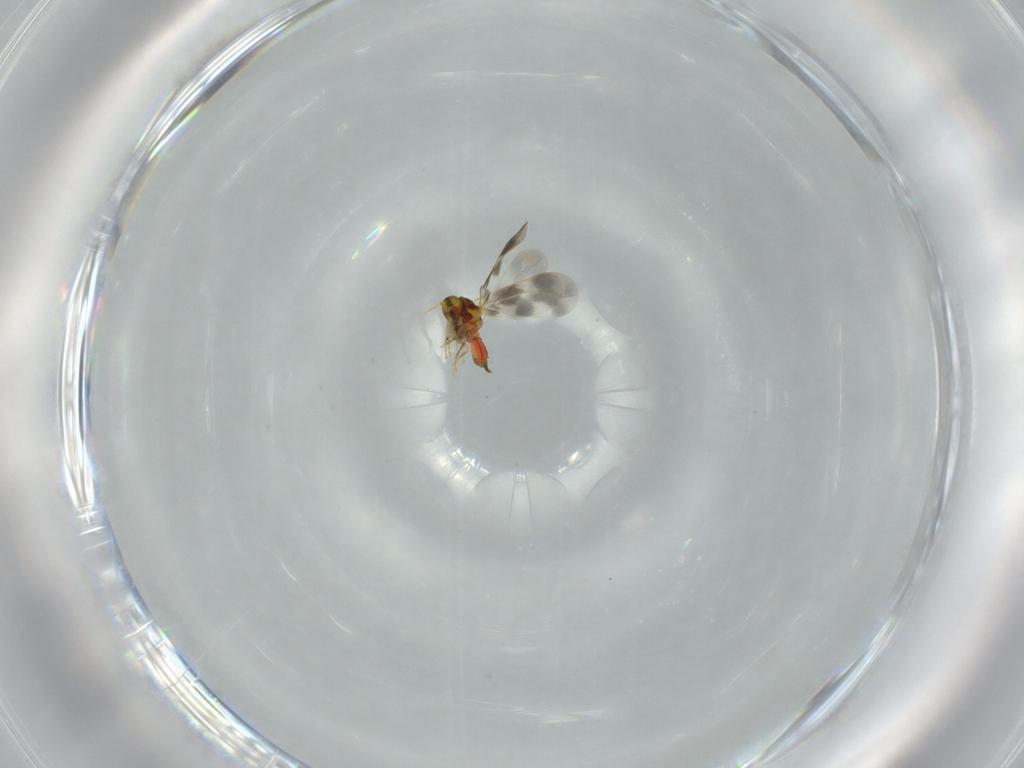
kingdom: Animalia
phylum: Arthropoda
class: Insecta
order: Hemiptera
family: Aleyrodidae
